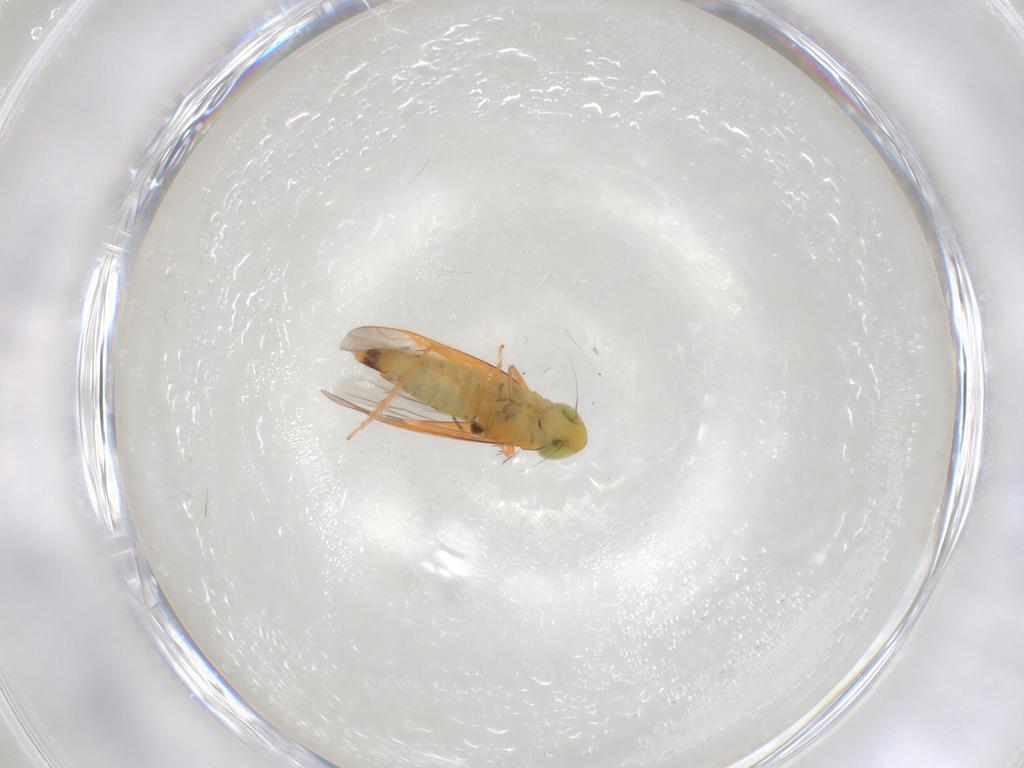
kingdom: Animalia
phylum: Arthropoda
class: Insecta
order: Hemiptera
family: Cicadellidae
